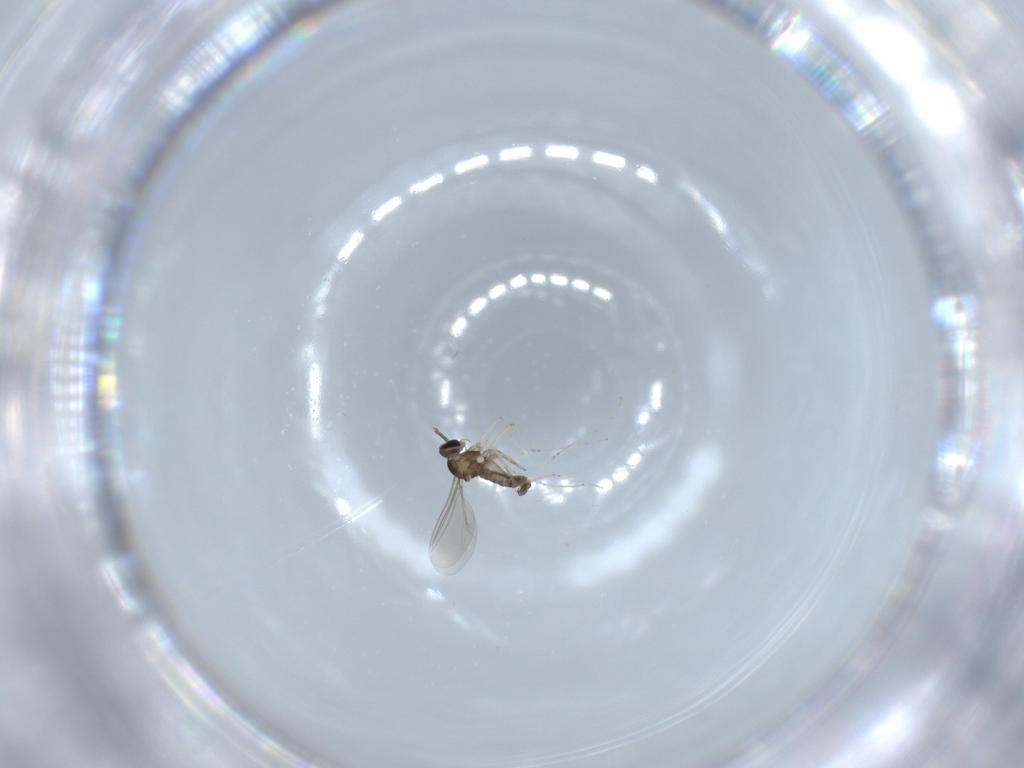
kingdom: Animalia
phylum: Arthropoda
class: Insecta
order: Diptera
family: Cecidomyiidae
